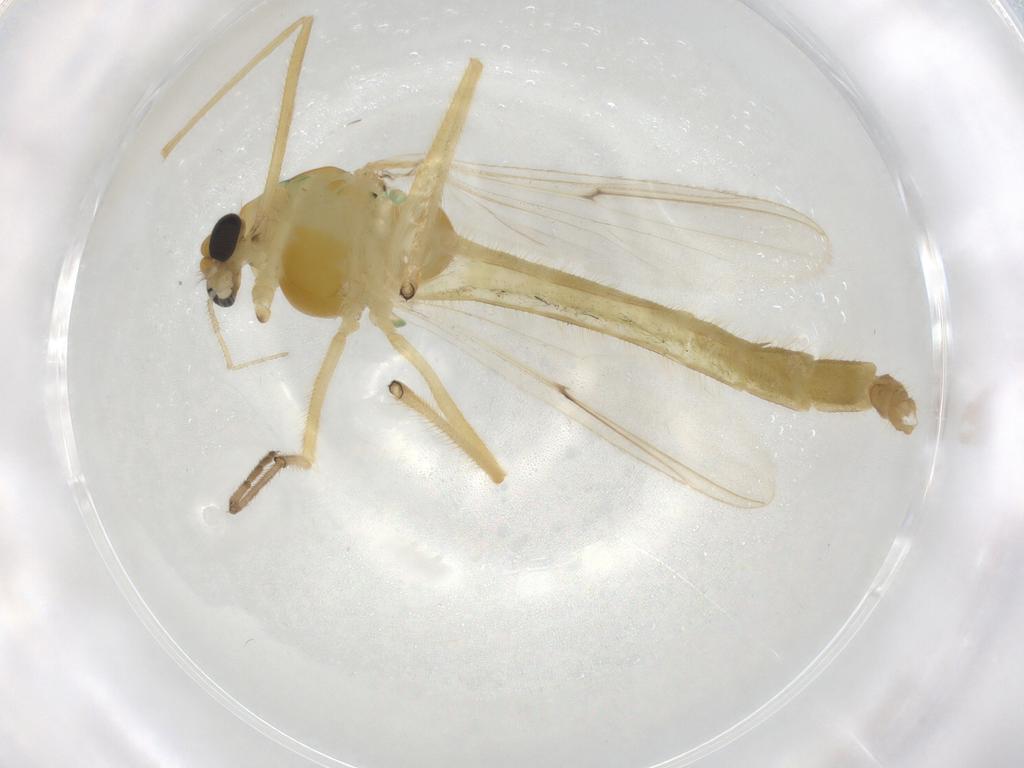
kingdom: Animalia
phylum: Arthropoda
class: Insecta
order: Diptera
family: Chironomidae
